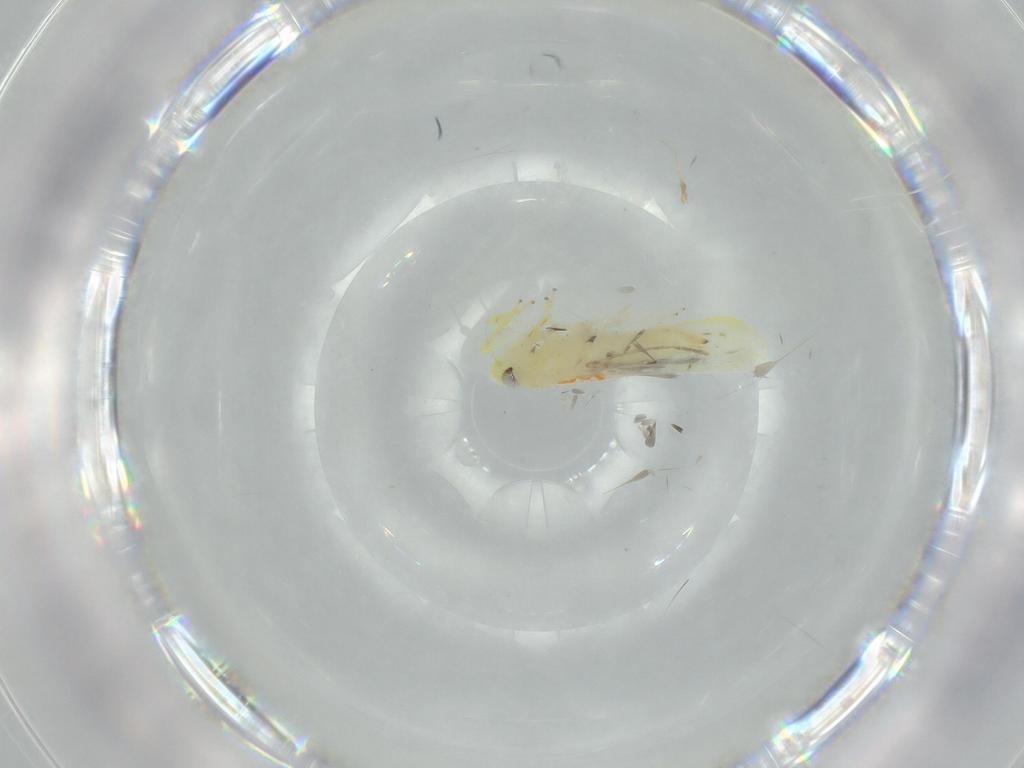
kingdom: Animalia
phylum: Arthropoda
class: Insecta
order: Hemiptera
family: Cicadellidae
